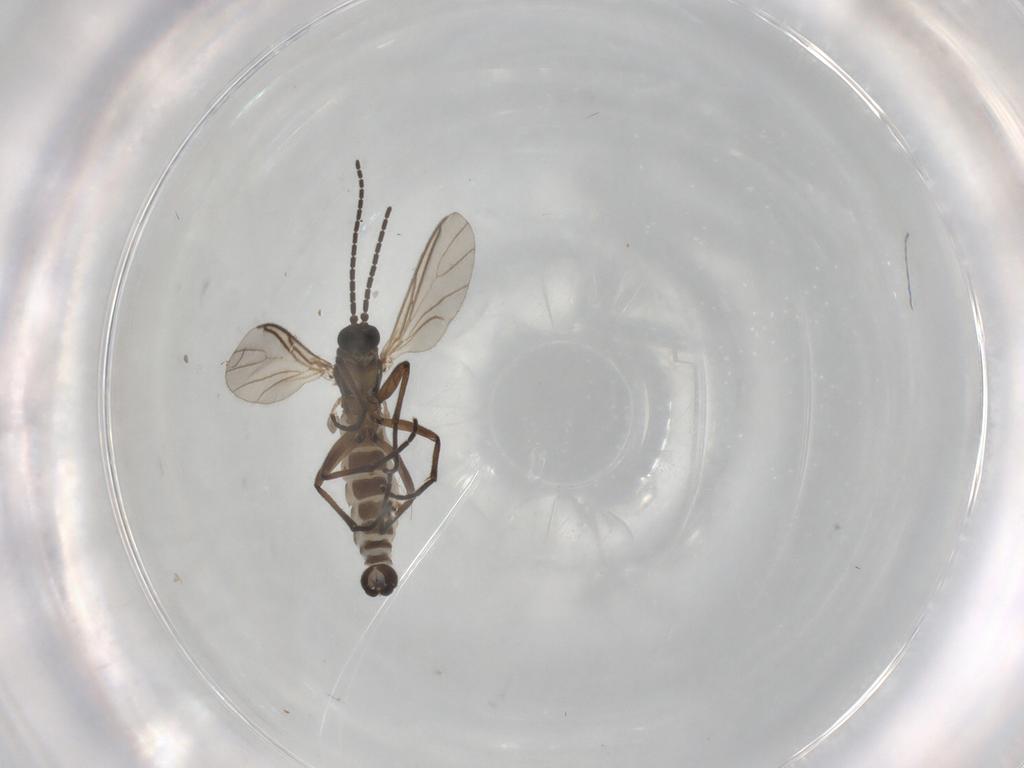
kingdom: Animalia
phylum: Arthropoda
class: Insecta
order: Diptera
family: Sciaridae
